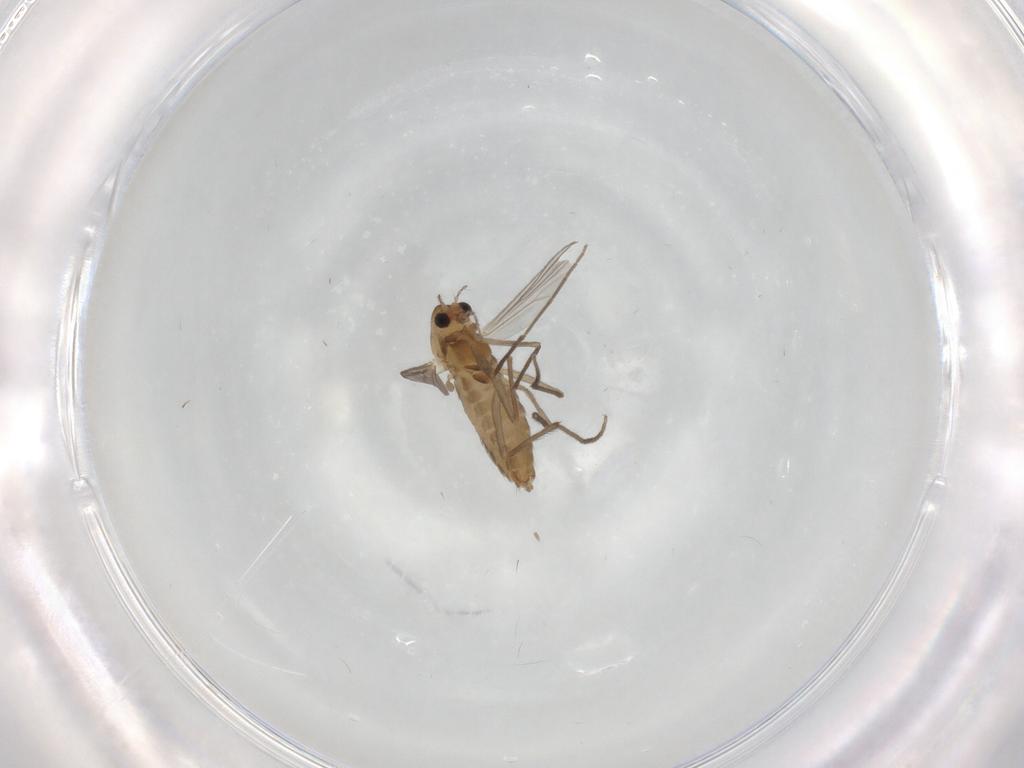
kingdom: Animalia
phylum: Arthropoda
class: Insecta
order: Diptera
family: Chironomidae
